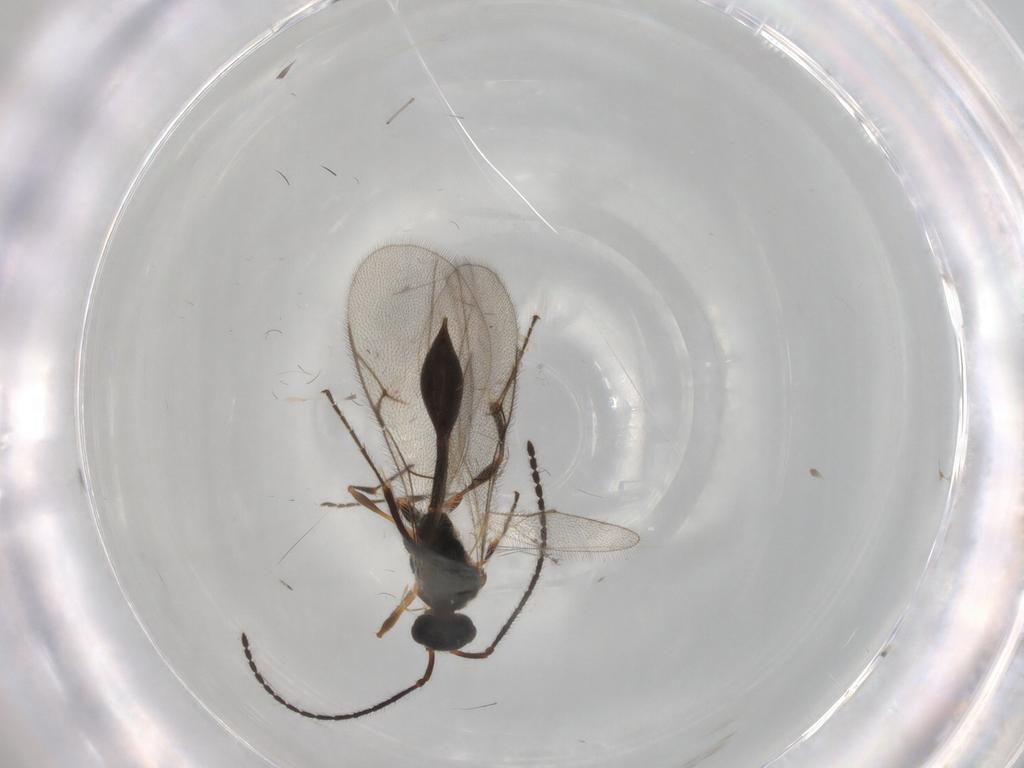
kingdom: Animalia
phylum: Arthropoda
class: Insecta
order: Hymenoptera
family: Diapriidae
